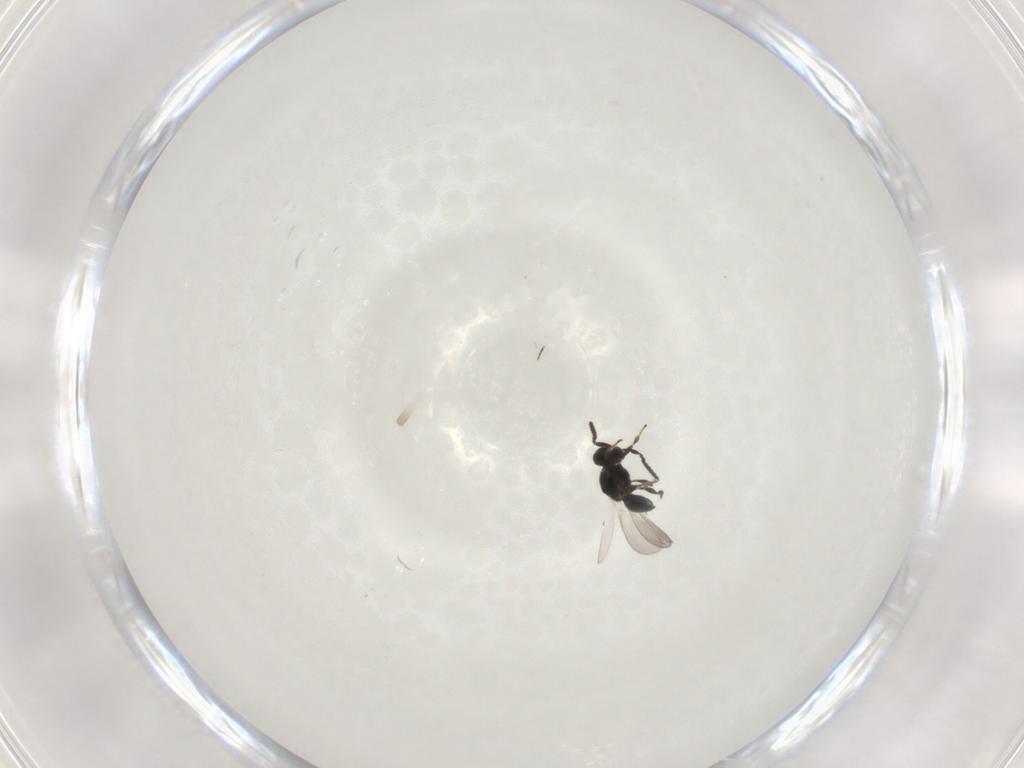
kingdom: Animalia
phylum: Arthropoda
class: Insecta
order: Hymenoptera
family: Platygastridae
